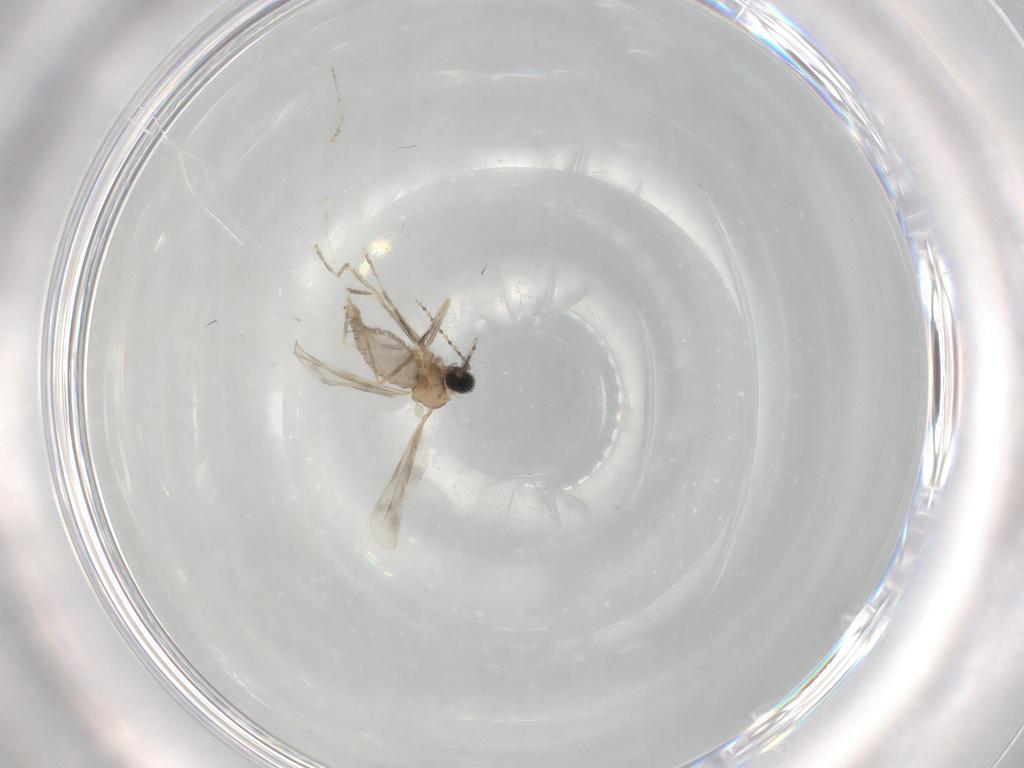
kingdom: Animalia
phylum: Arthropoda
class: Insecta
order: Diptera
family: Cecidomyiidae
